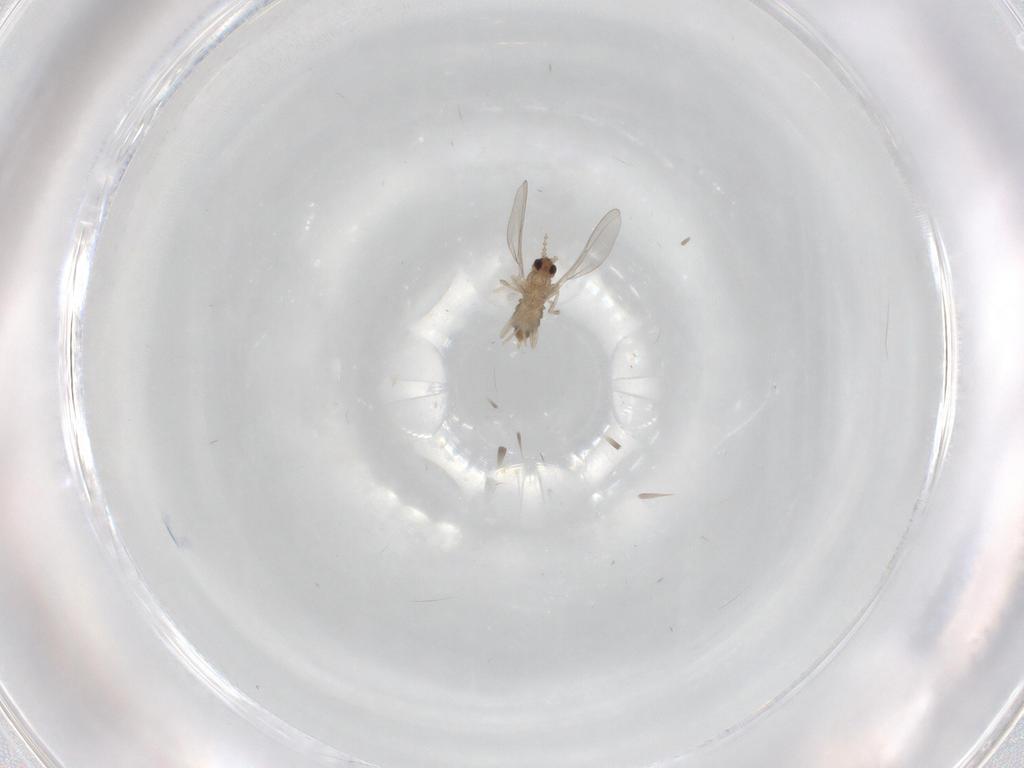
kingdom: Animalia
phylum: Arthropoda
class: Insecta
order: Diptera
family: Cecidomyiidae
